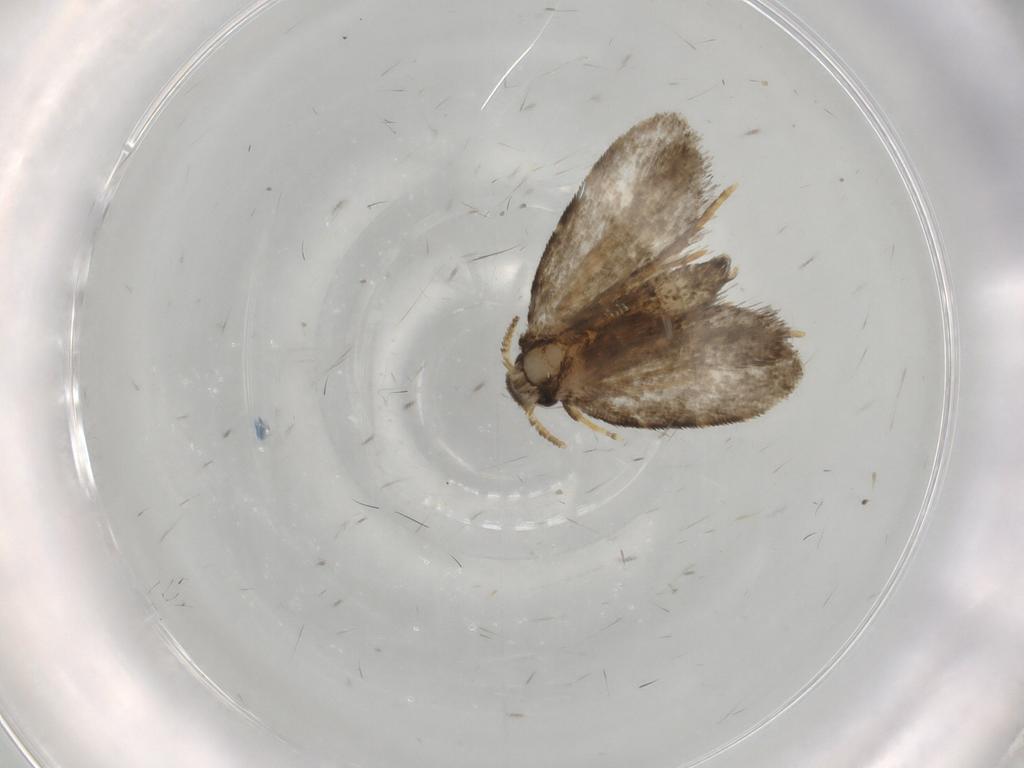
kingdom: Animalia
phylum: Arthropoda
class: Insecta
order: Lepidoptera
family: Psychidae
